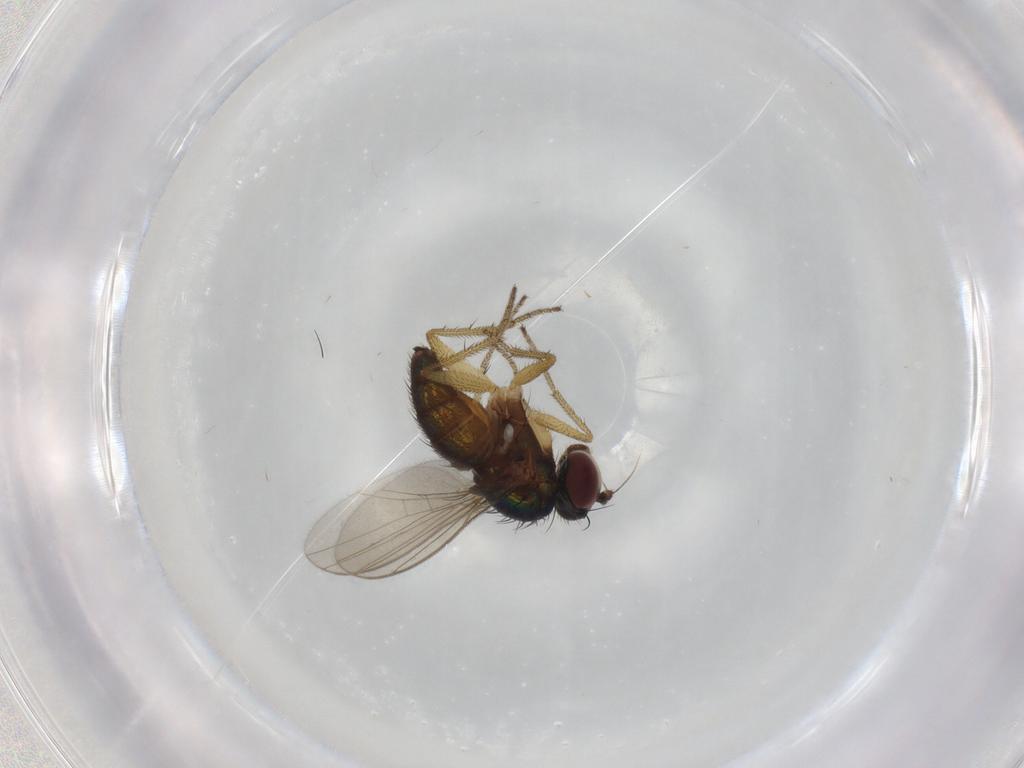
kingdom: Animalia
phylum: Arthropoda
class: Insecta
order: Diptera
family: Dolichopodidae
